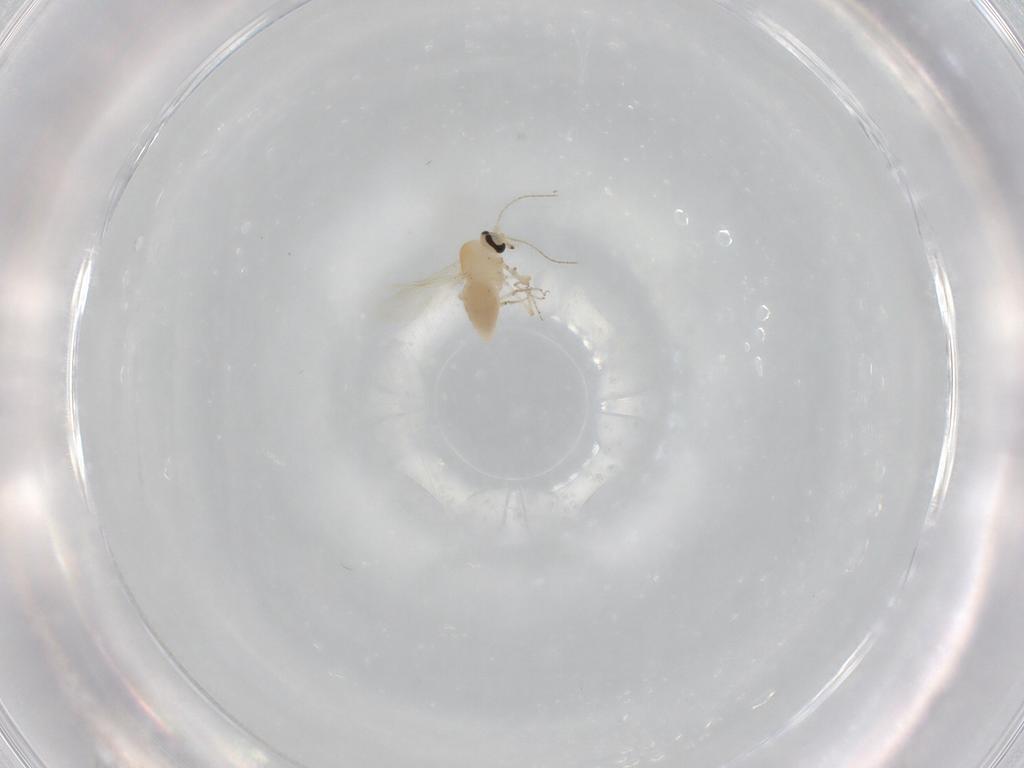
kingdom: Animalia
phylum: Arthropoda
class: Insecta
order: Diptera
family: Ceratopogonidae
